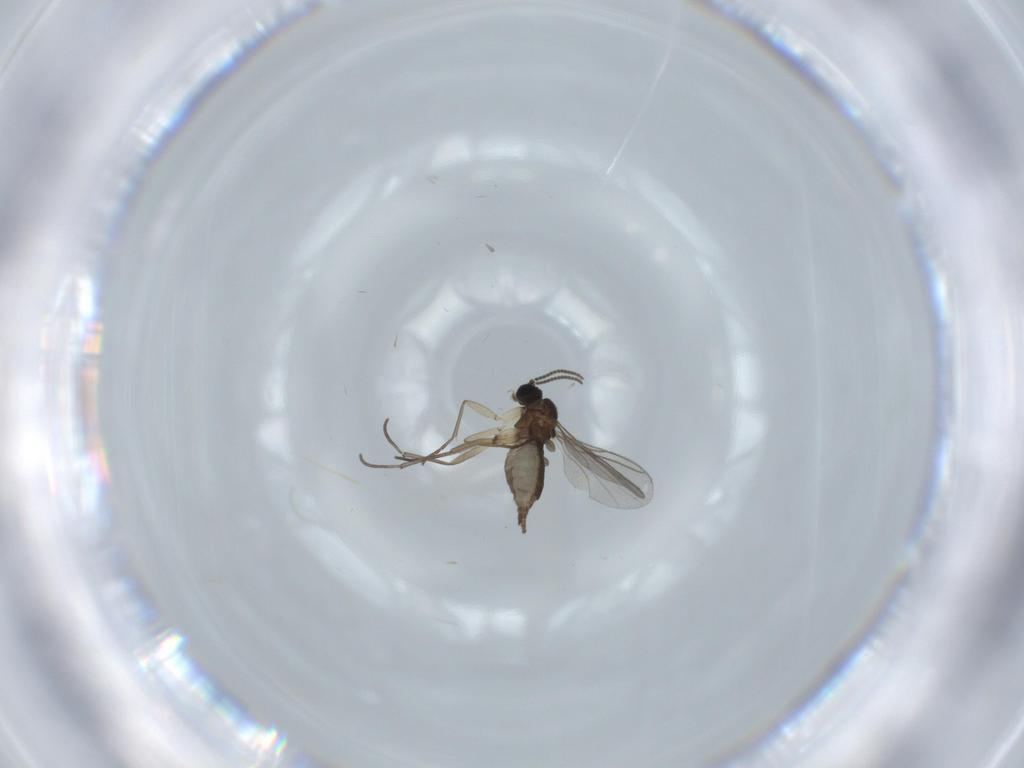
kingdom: Animalia
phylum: Arthropoda
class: Insecta
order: Diptera
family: Sciaridae
